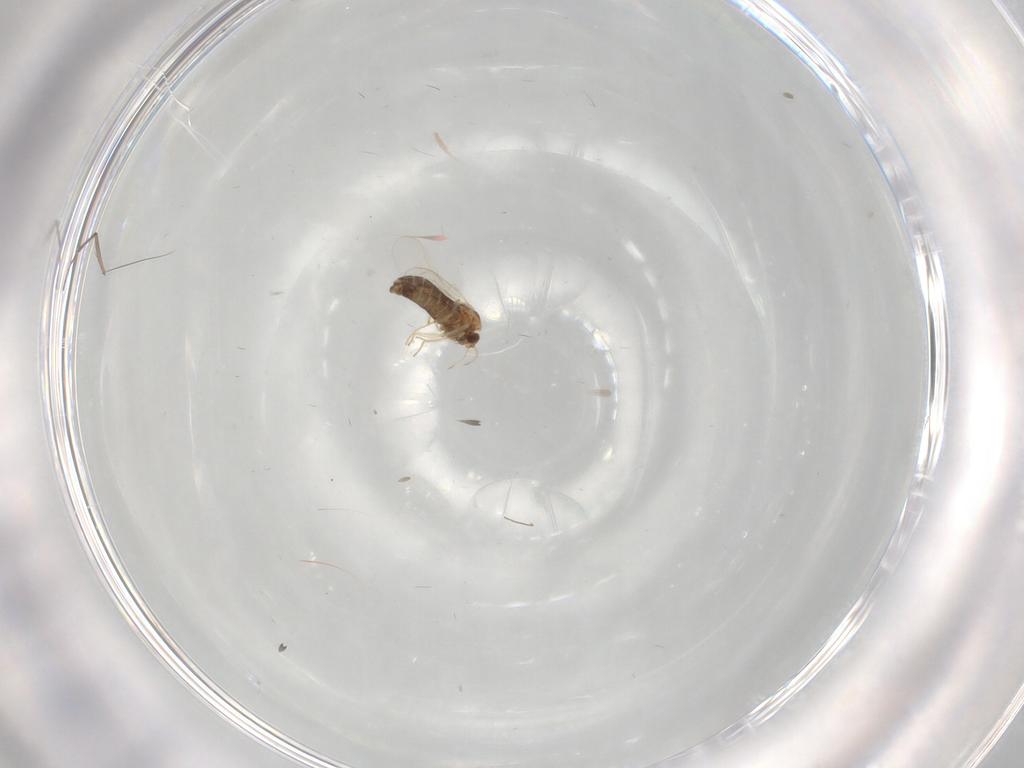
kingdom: Animalia
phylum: Arthropoda
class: Insecta
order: Diptera
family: Chironomidae
